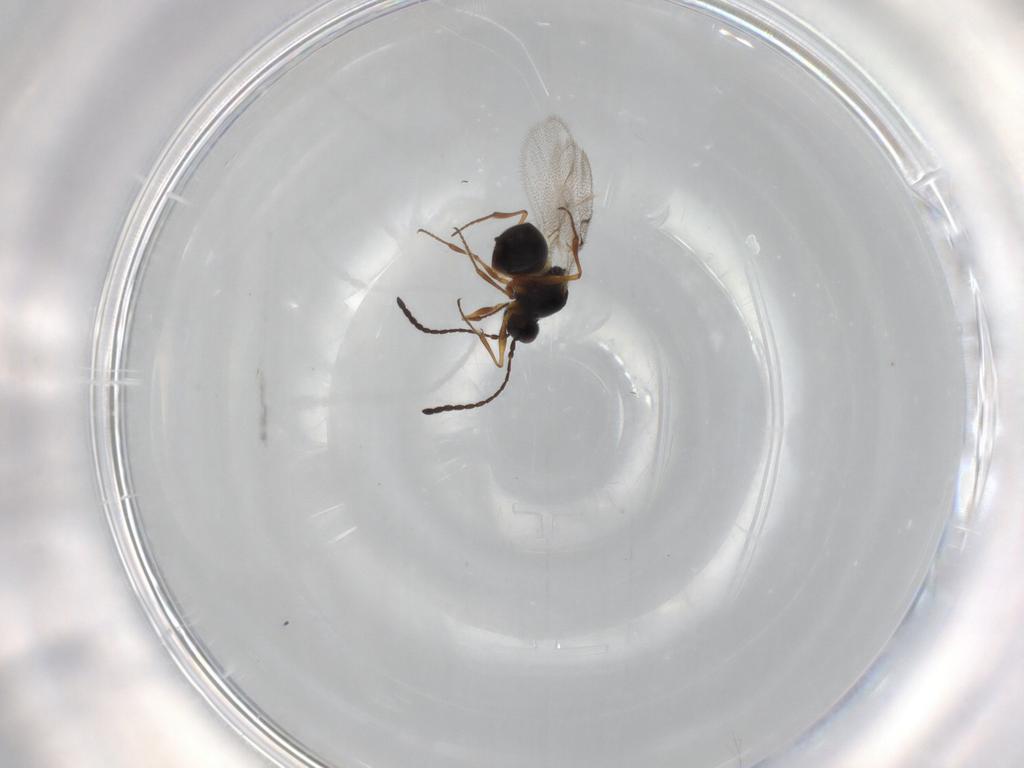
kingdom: Animalia
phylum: Arthropoda
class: Insecta
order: Hymenoptera
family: Figitidae
